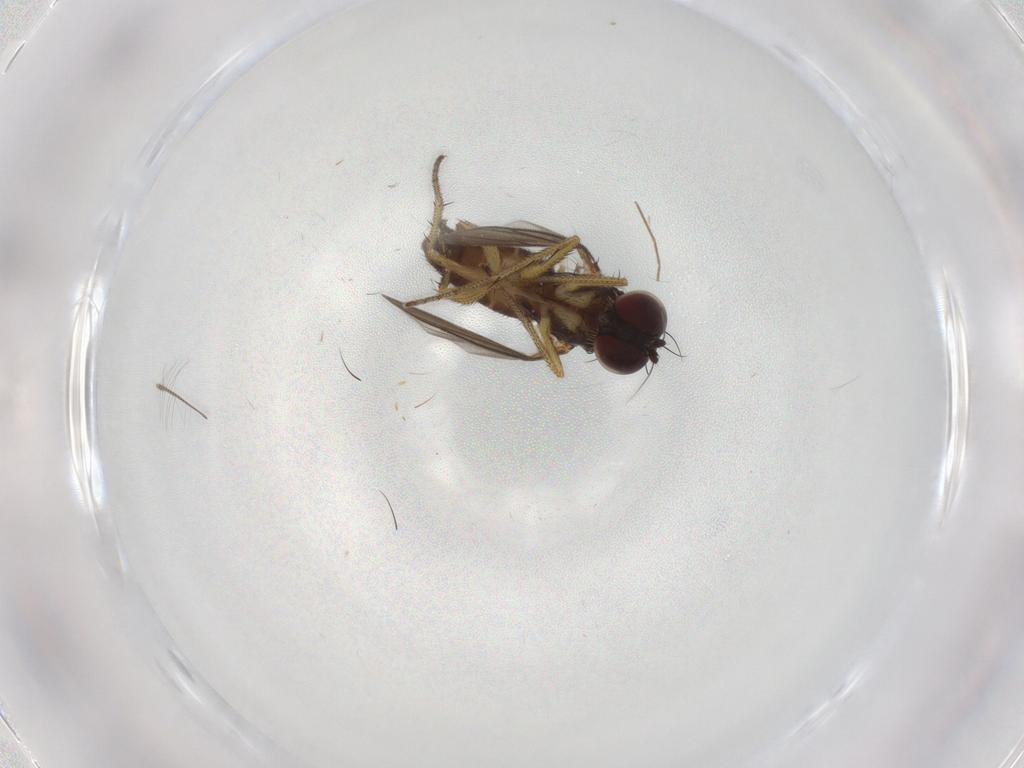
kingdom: Animalia
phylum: Arthropoda
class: Insecta
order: Diptera
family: Dolichopodidae
